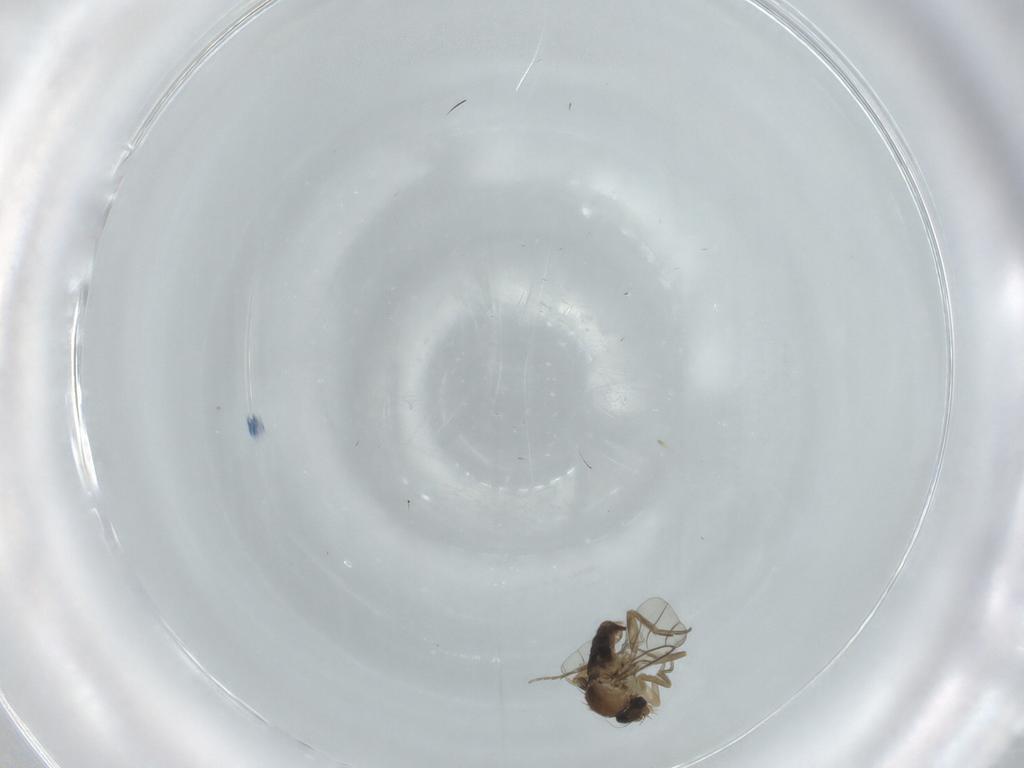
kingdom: Animalia
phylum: Arthropoda
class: Insecta
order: Diptera
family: Phoridae
